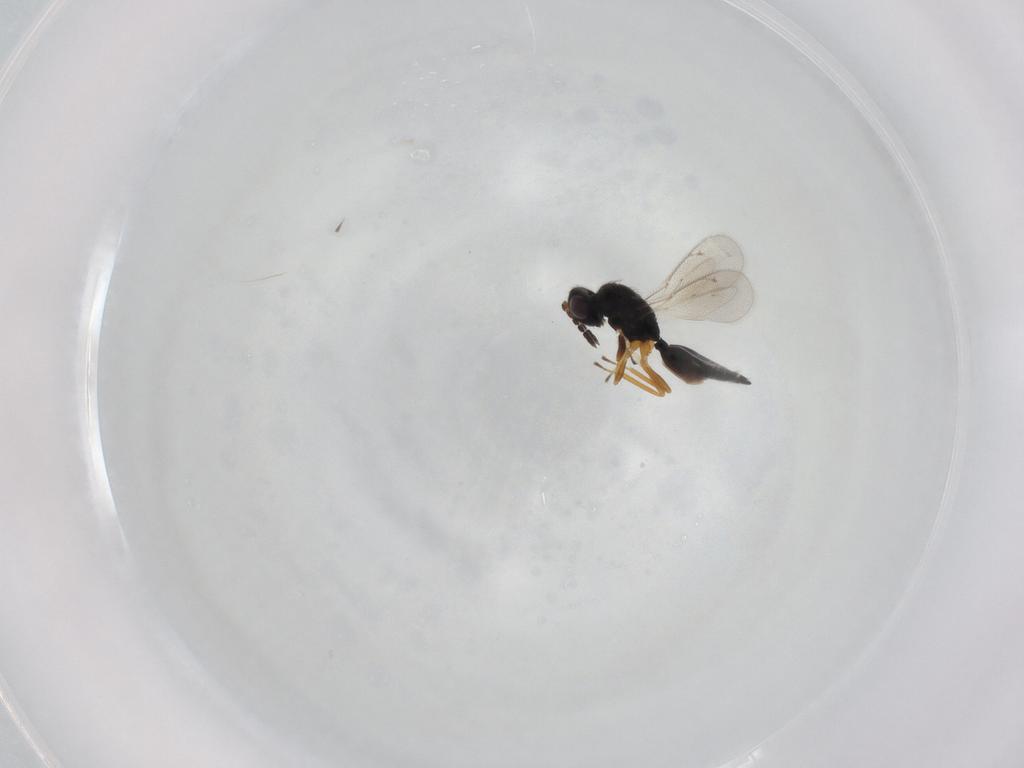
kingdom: Animalia
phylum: Arthropoda
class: Insecta
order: Hymenoptera
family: Eulophidae
